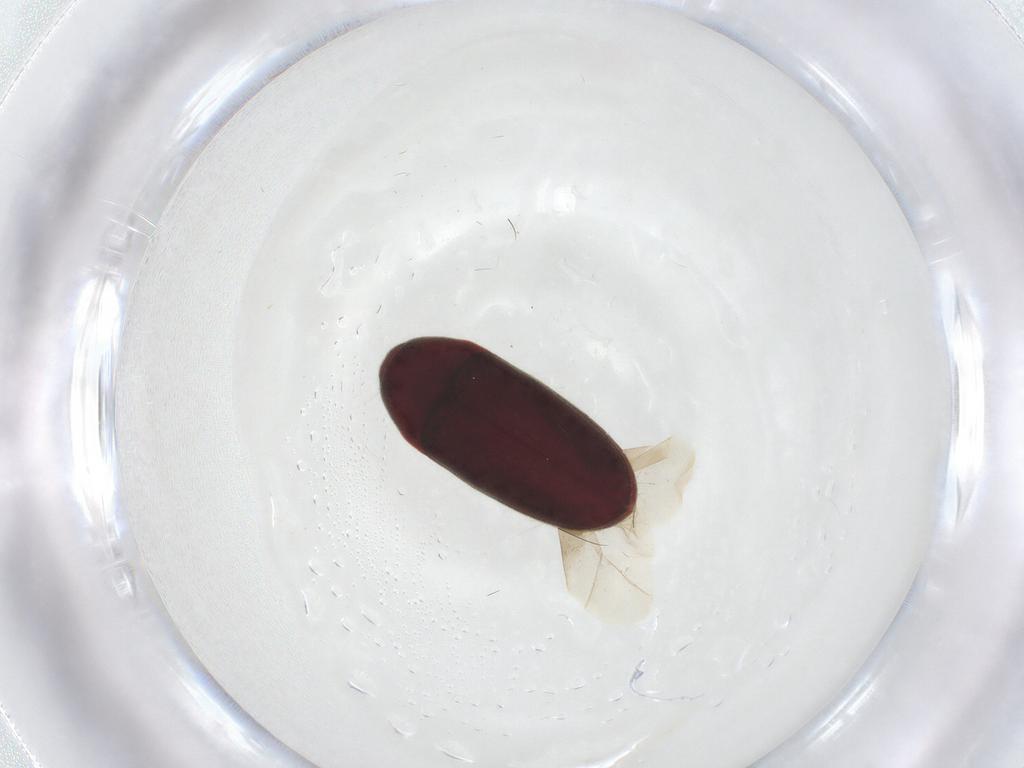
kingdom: Animalia
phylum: Arthropoda
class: Insecta
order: Coleoptera
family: Throscidae
